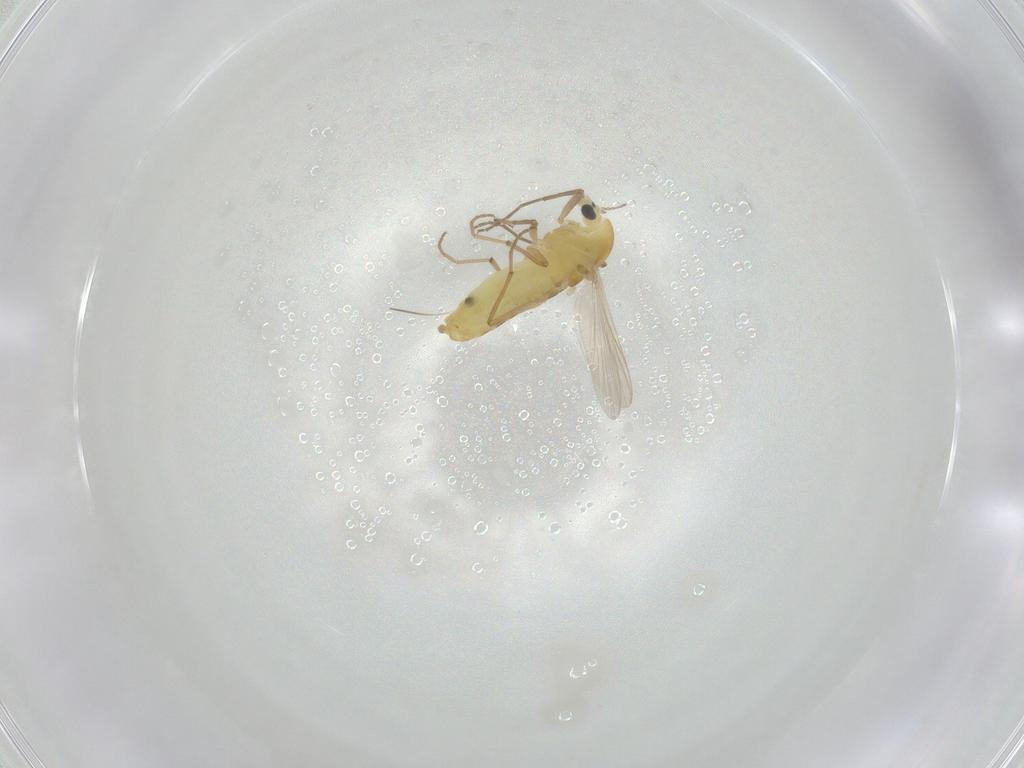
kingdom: Animalia
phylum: Arthropoda
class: Insecta
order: Diptera
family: Chironomidae
